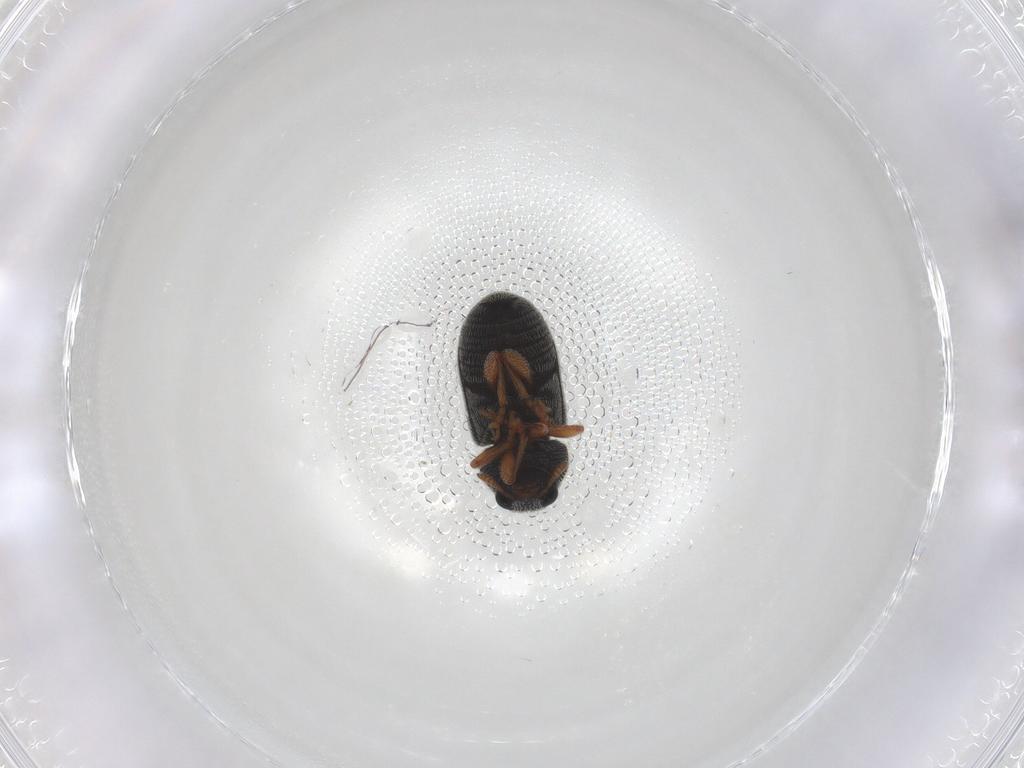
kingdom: Animalia
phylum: Arthropoda
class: Insecta
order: Coleoptera
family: Anthribidae
